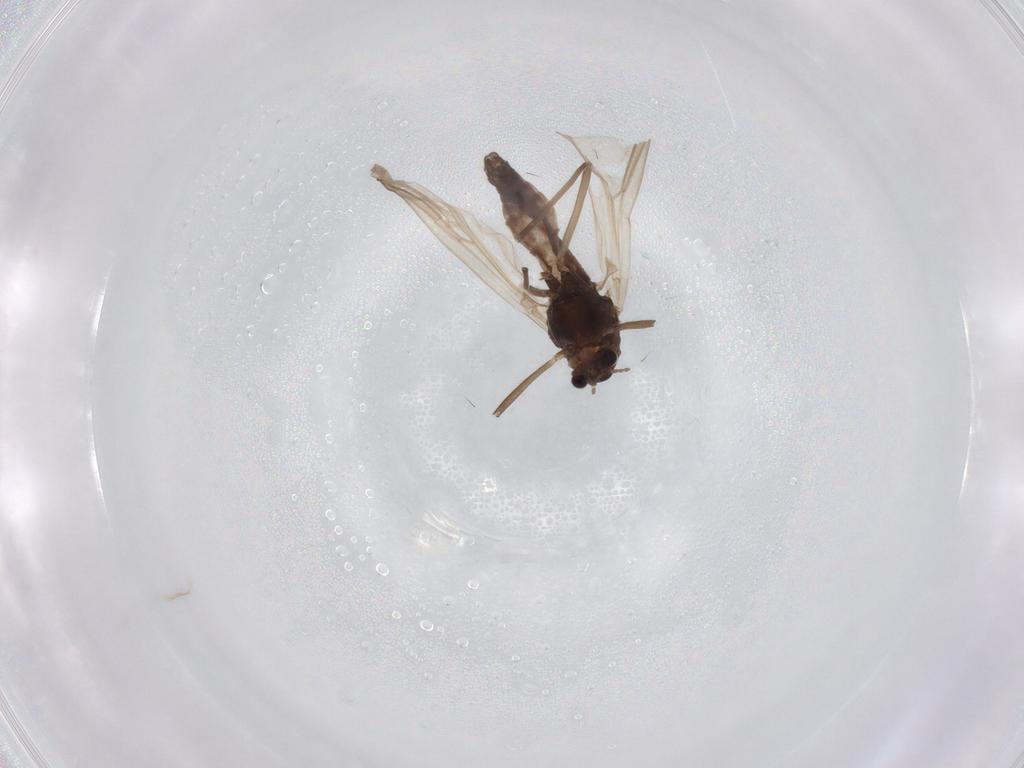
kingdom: Animalia
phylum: Arthropoda
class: Insecta
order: Diptera
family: Chironomidae
